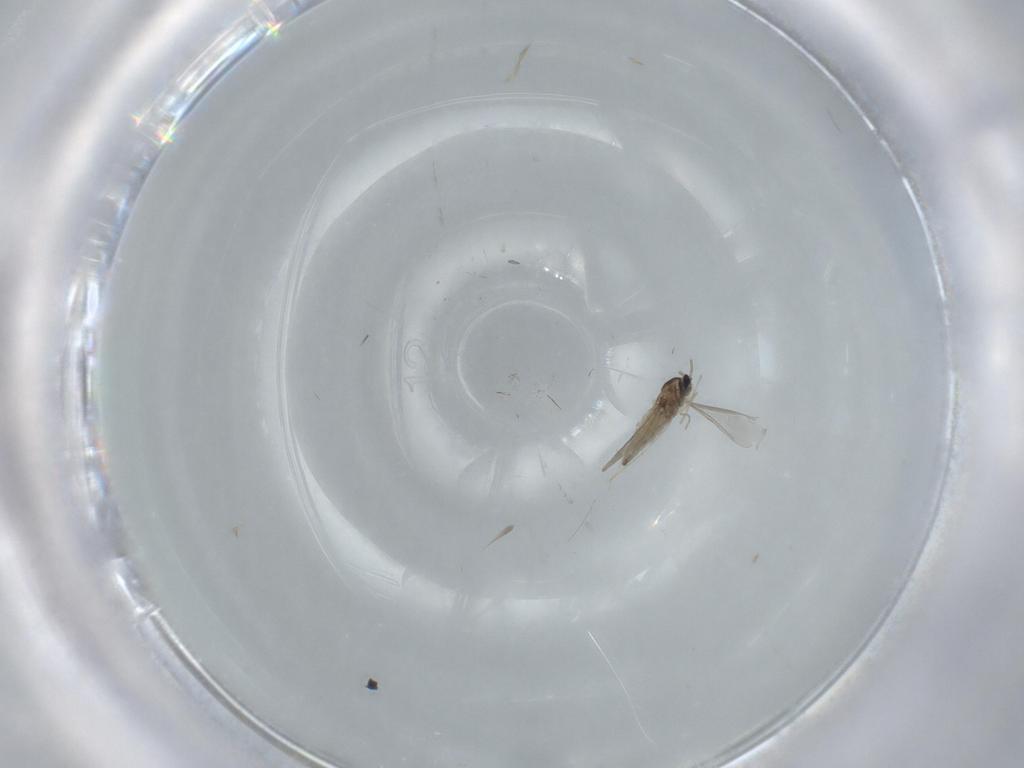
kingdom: Animalia
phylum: Arthropoda
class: Insecta
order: Diptera
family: Cecidomyiidae
